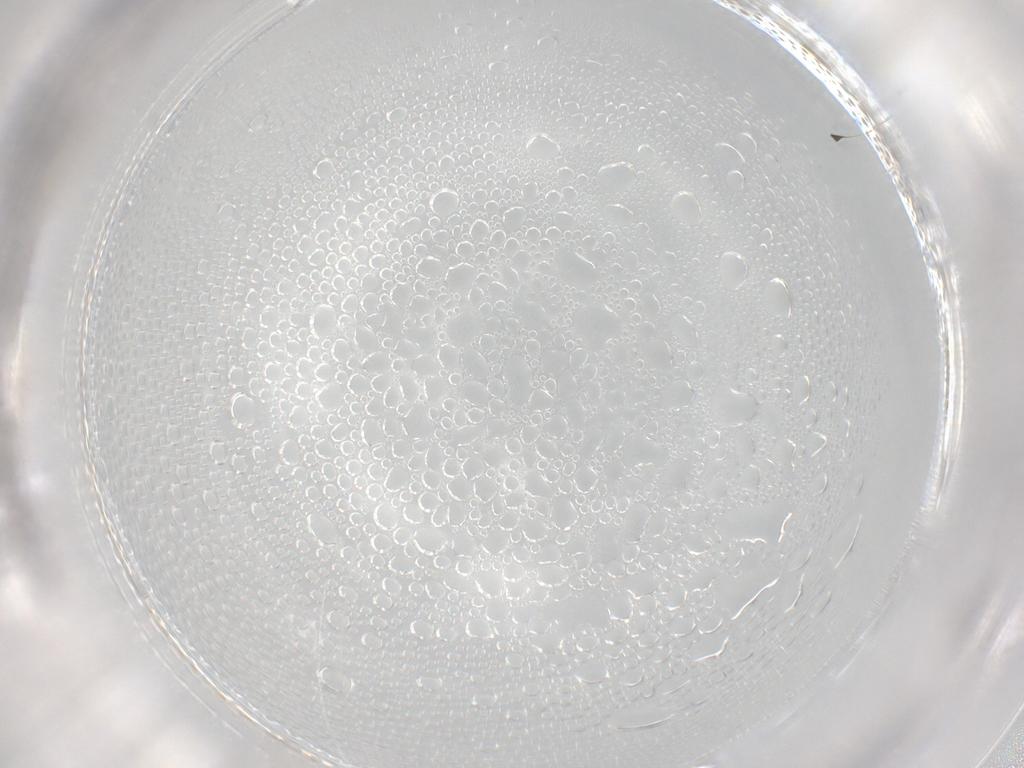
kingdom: Animalia
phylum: Arthropoda
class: Insecta
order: Hemiptera
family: Cicadellidae
